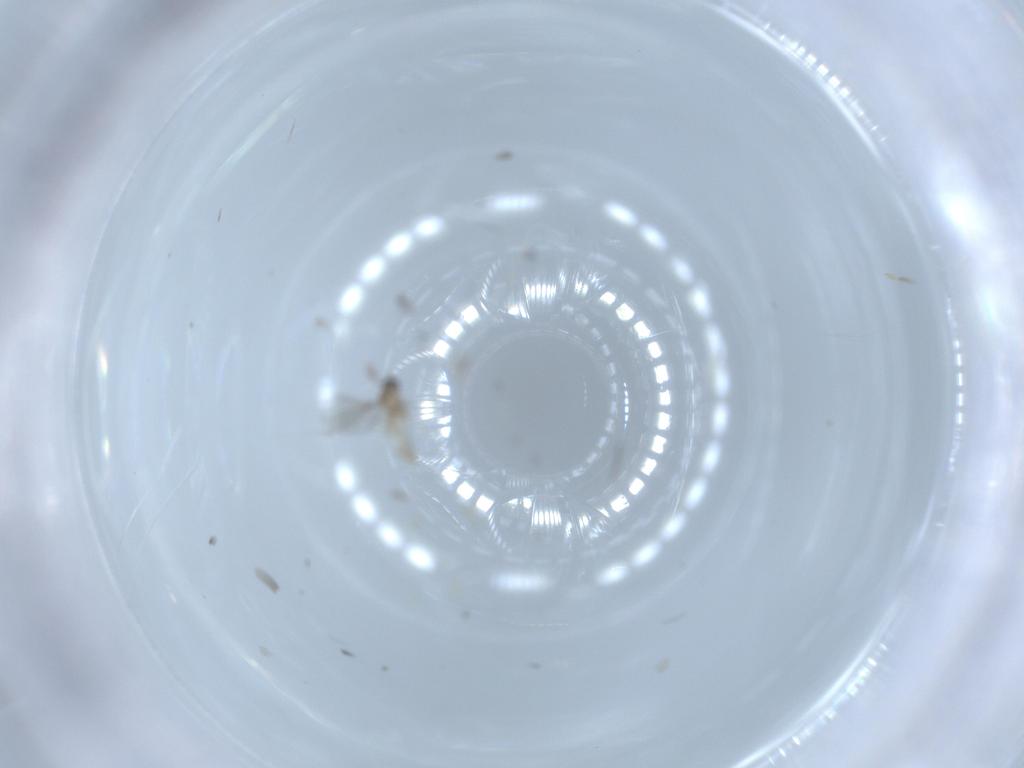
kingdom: Animalia
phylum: Arthropoda
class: Insecta
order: Diptera
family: Cecidomyiidae
